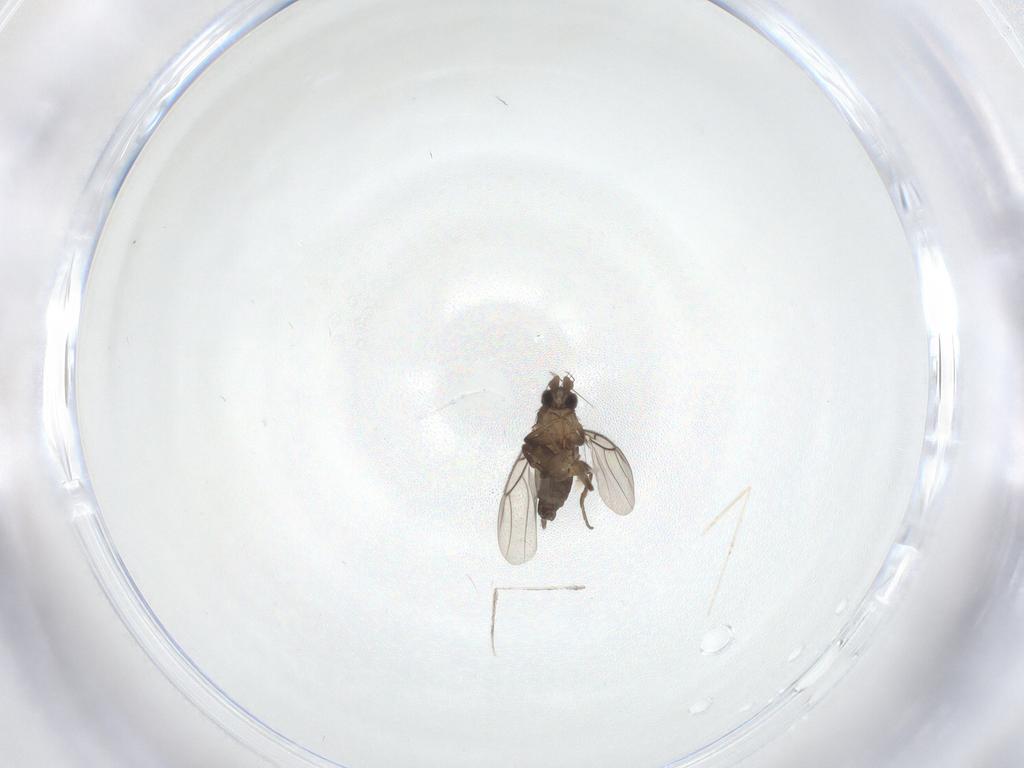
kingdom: Animalia
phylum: Arthropoda
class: Insecta
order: Diptera
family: Phoridae
